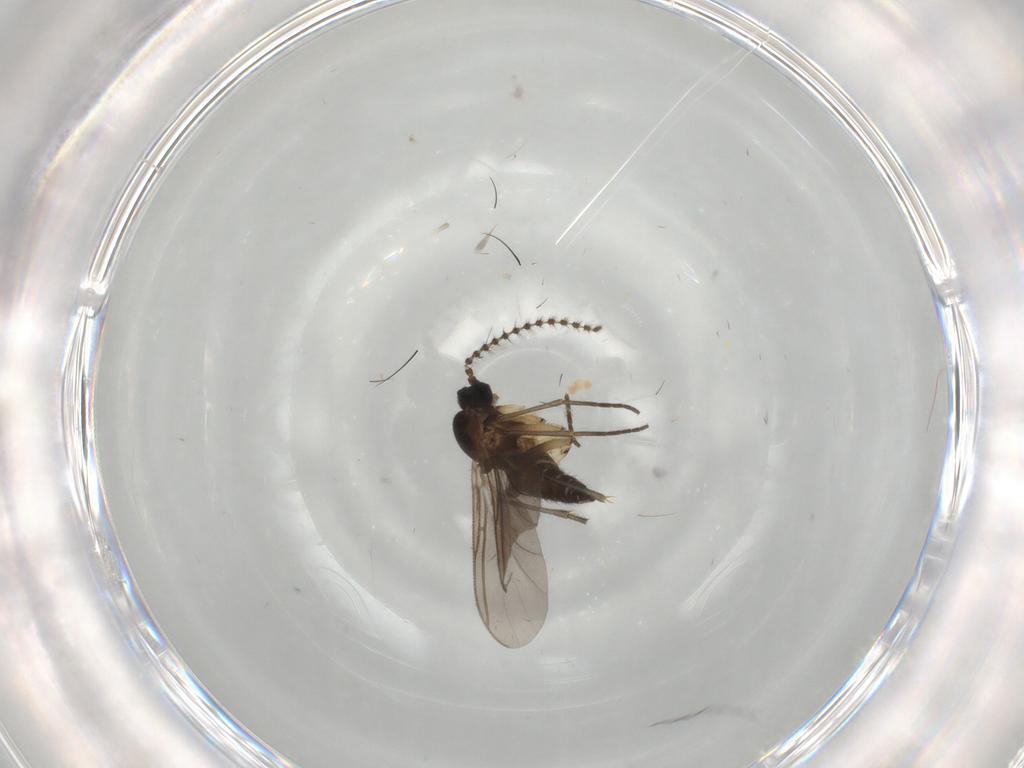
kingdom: Animalia
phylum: Arthropoda
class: Insecta
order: Diptera
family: Sciaridae
